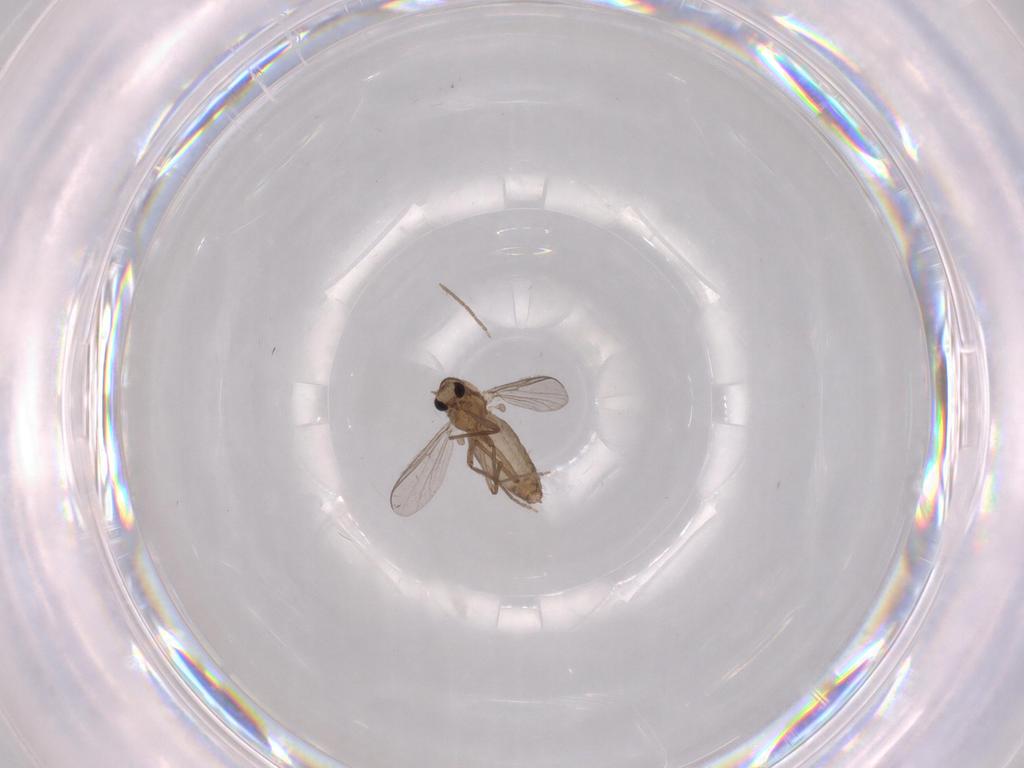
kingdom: Animalia
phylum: Arthropoda
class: Insecta
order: Diptera
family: Chironomidae
